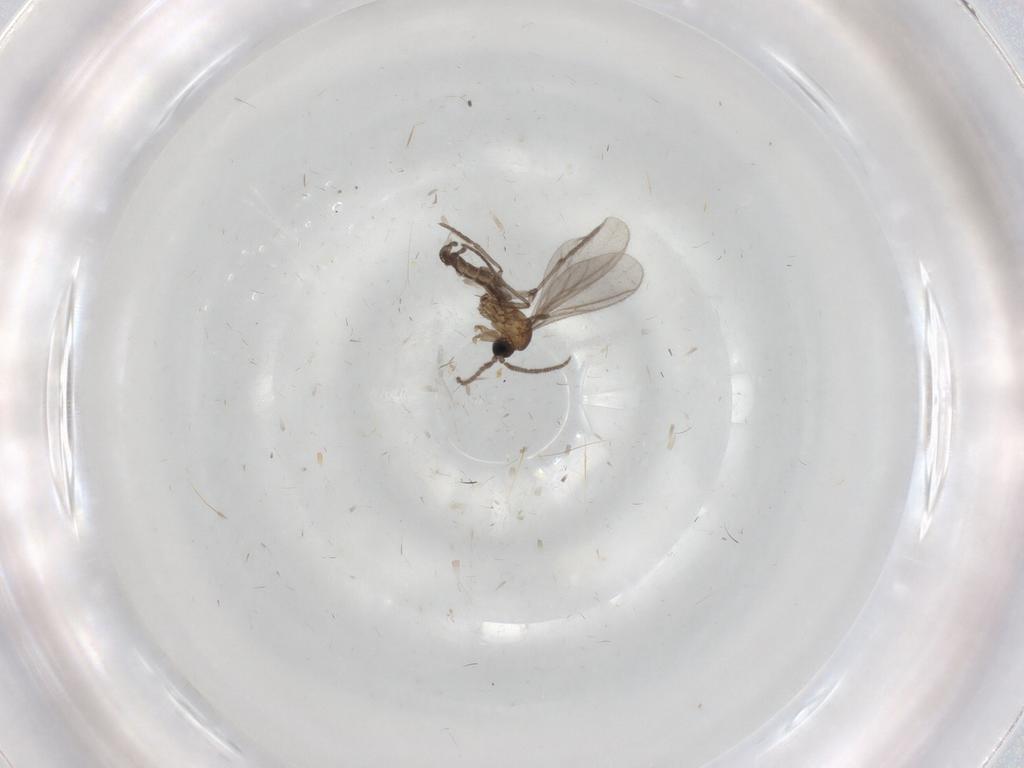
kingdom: Animalia
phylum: Arthropoda
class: Insecta
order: Diptera
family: Sciaridae
